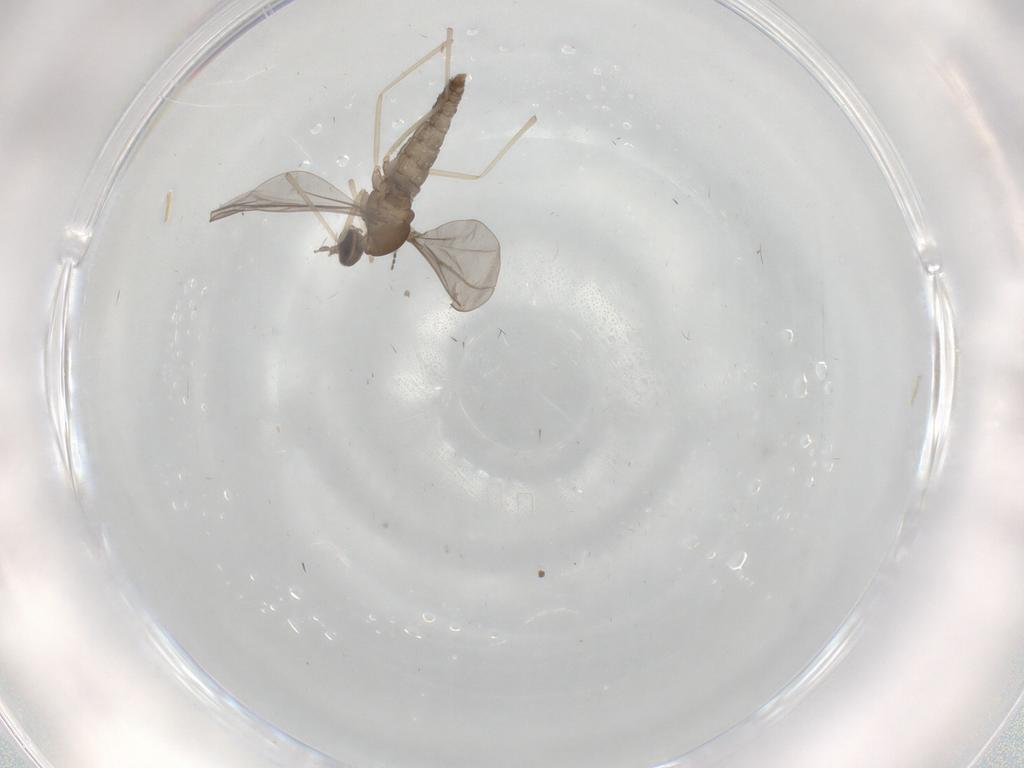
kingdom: Animalia
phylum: Arthropoda
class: Insecta
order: Diptera
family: Cecidomyiidae
